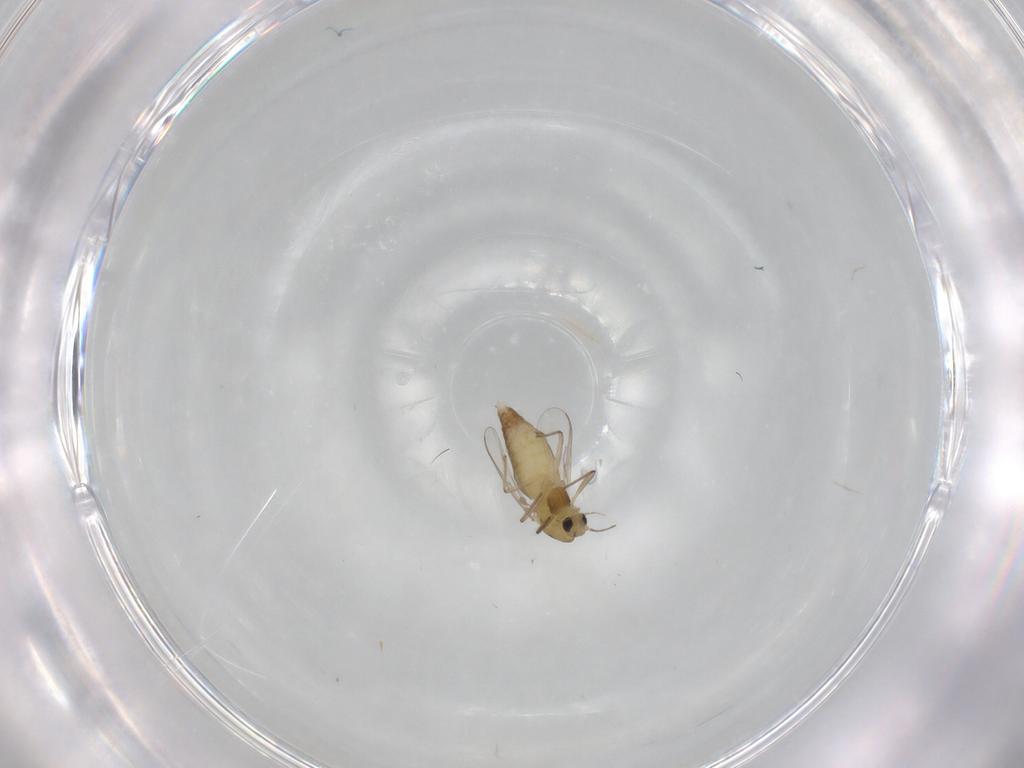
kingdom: Animalia
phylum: Arthropoda
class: Insecta
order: Diptera
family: Chironomidae
